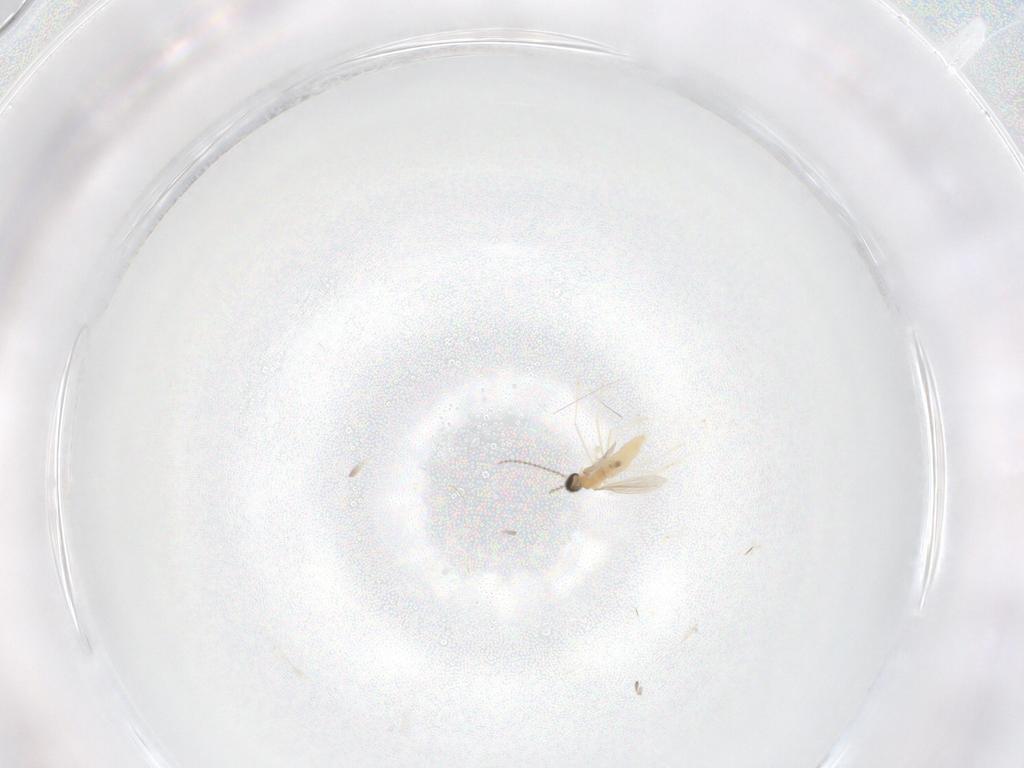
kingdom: Animalia
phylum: Arthropoda
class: Insecta
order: Diptera
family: Cecidomyiidae
